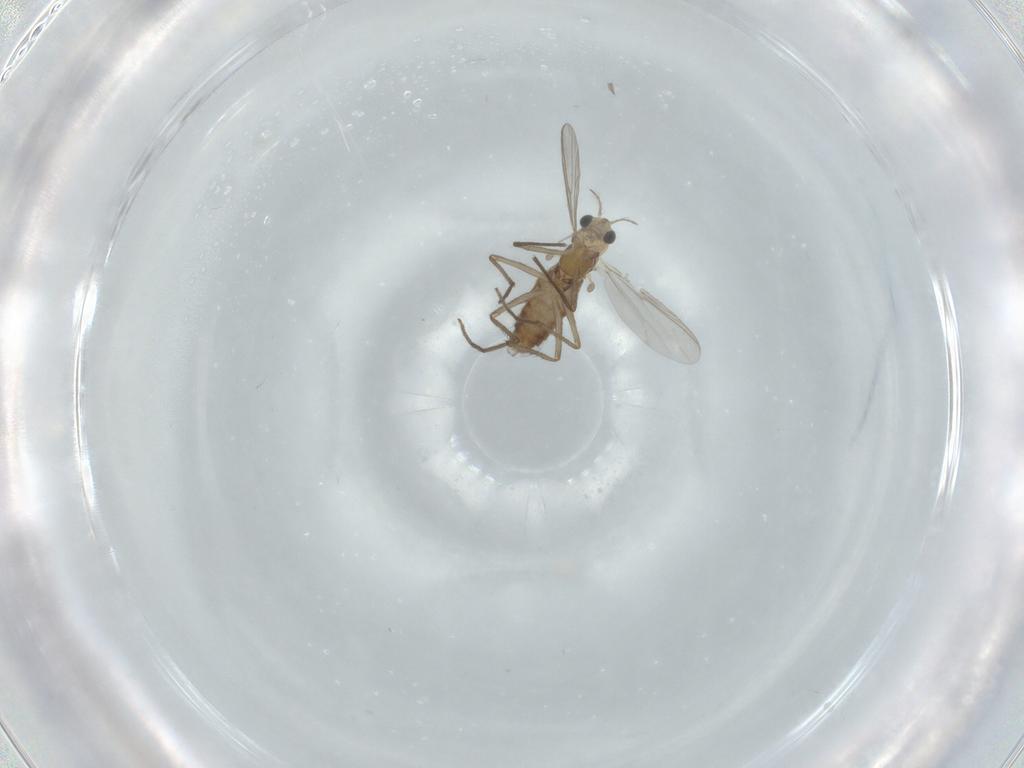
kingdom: Animalia
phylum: Arthropoda
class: Insecta
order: Diptera
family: Chironomidae
